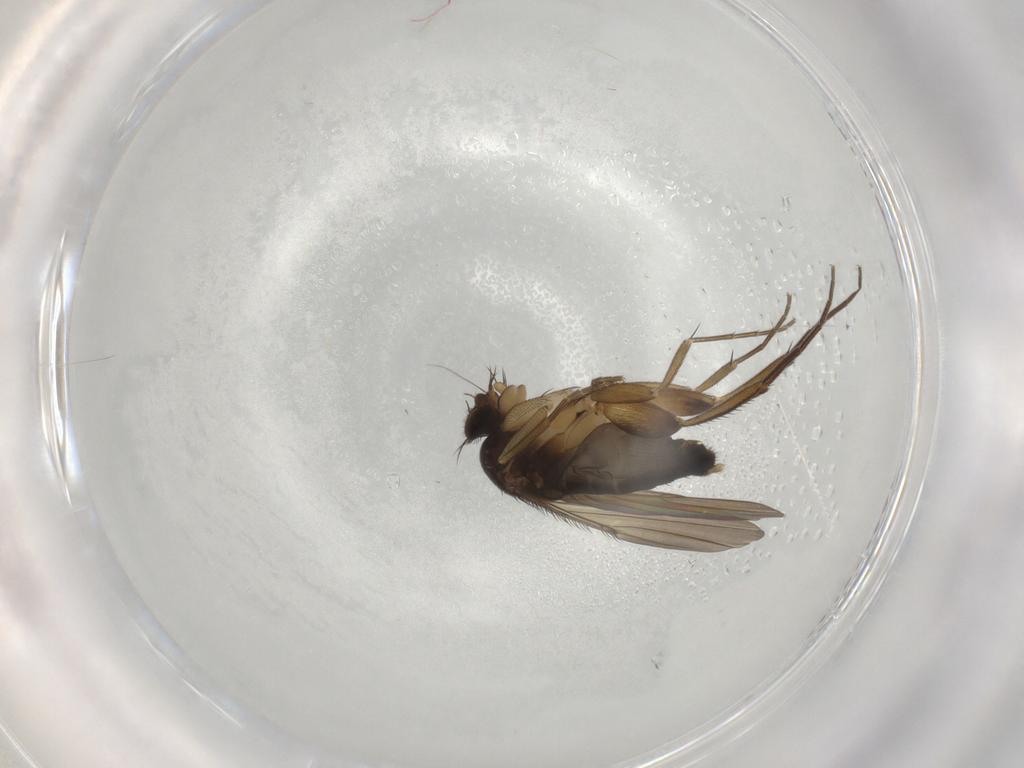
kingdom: Animalia
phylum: Arthropoda
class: Insecta
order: Diptera
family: Phoridae
